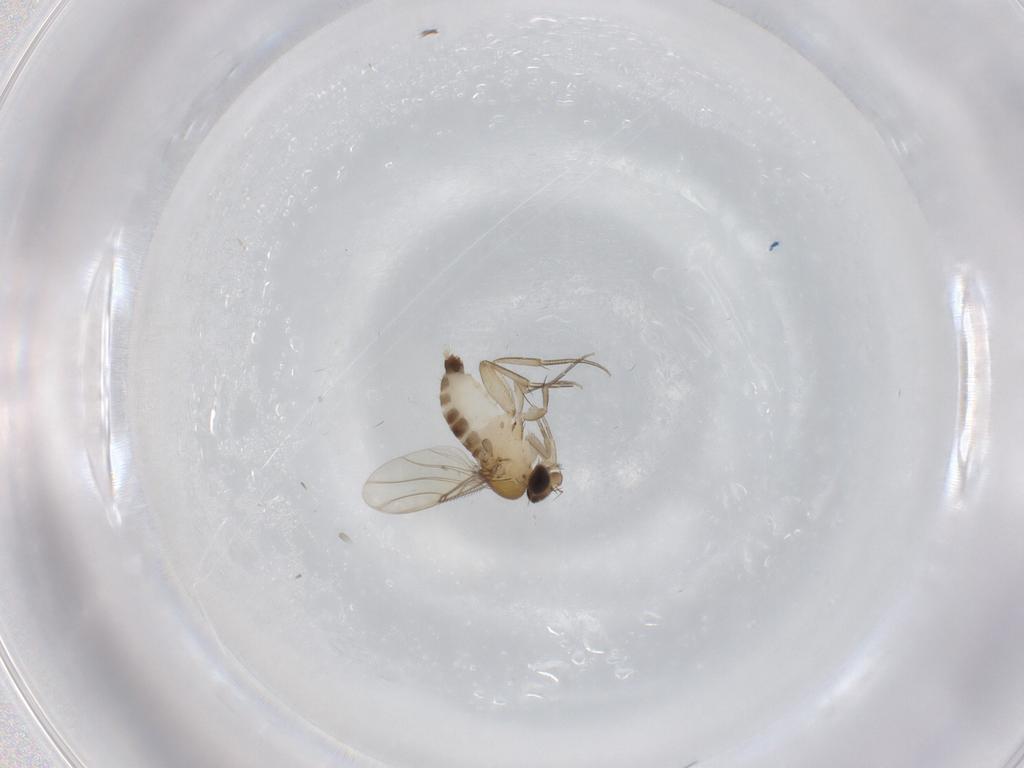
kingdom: Animalia
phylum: Arthropoda
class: Insecta
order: Diptera
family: Phoridae
